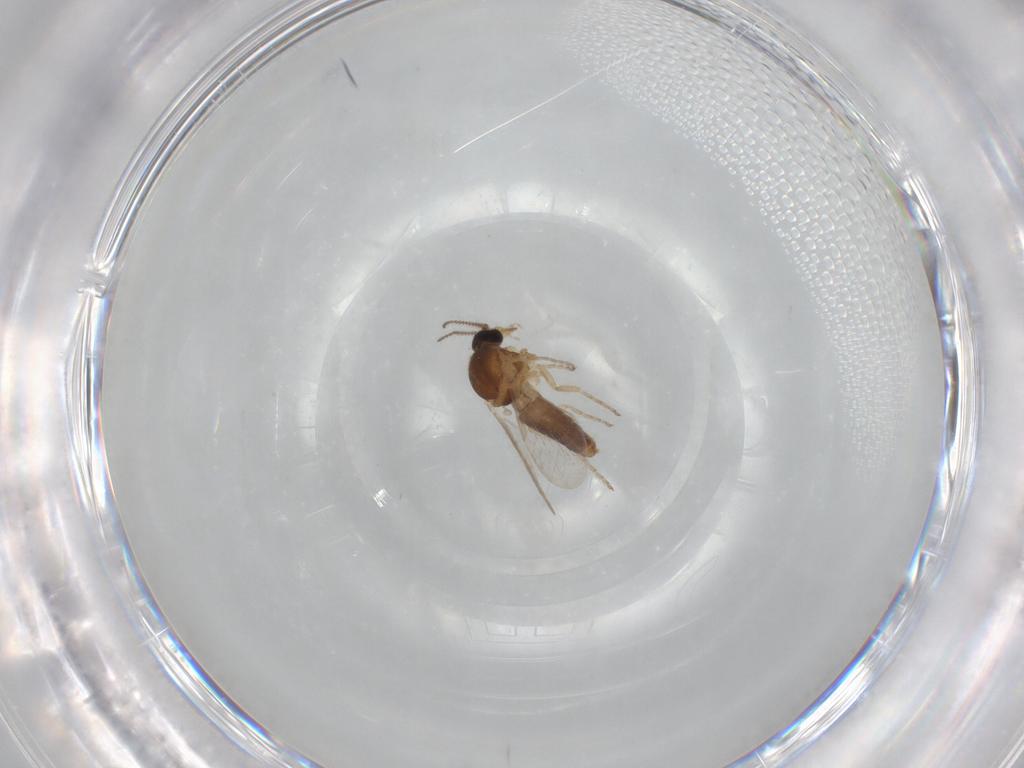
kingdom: Animalia
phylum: Arthropoda
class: Insecta
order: Diptera
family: Ceratopogonidae
